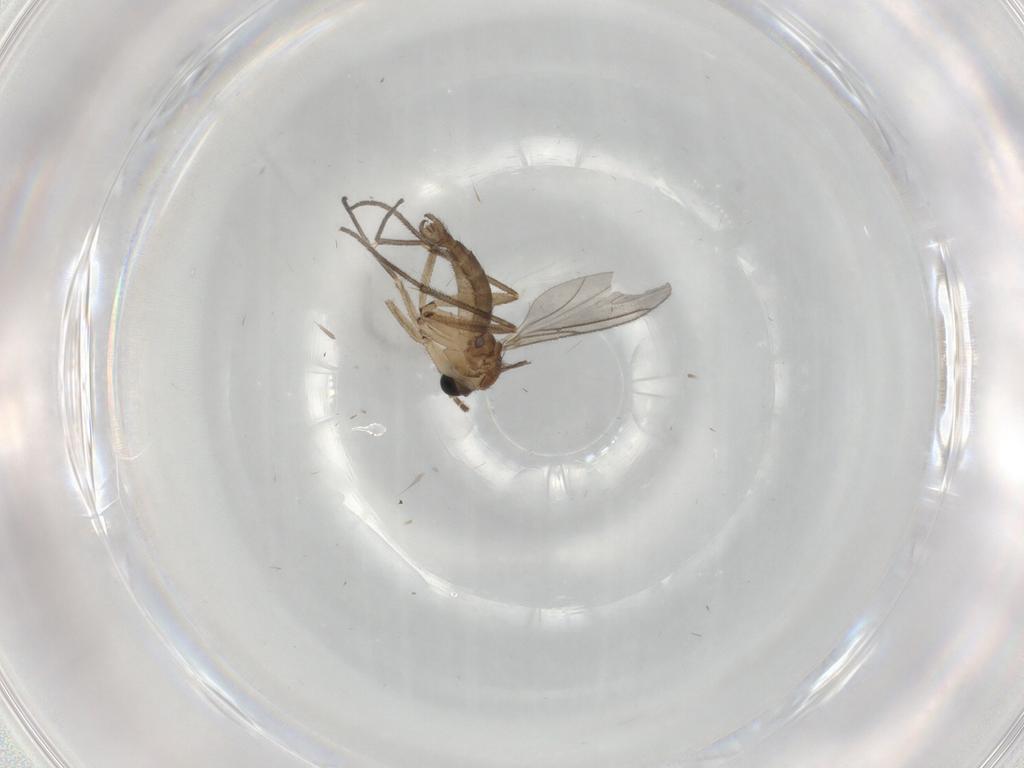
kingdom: Animalia
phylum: Arthropoda
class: Insecta
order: Diptera
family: Sciaridae
